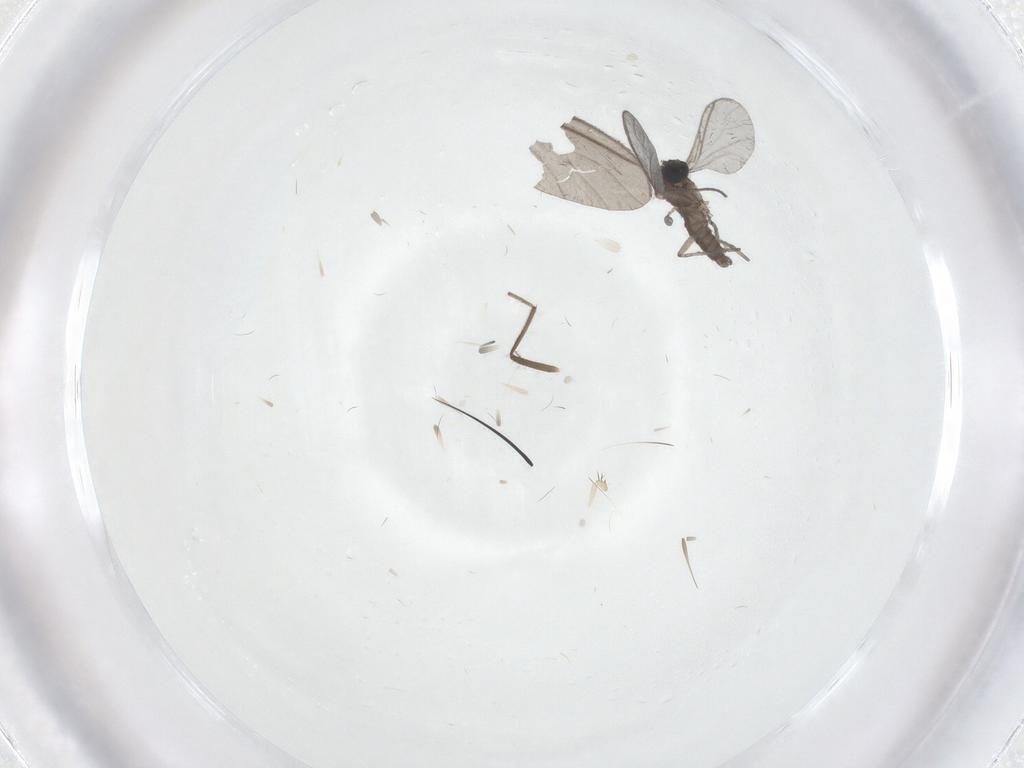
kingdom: Animalia
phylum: Arthropoda
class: Insecta
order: Diptera
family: Chironomidae
